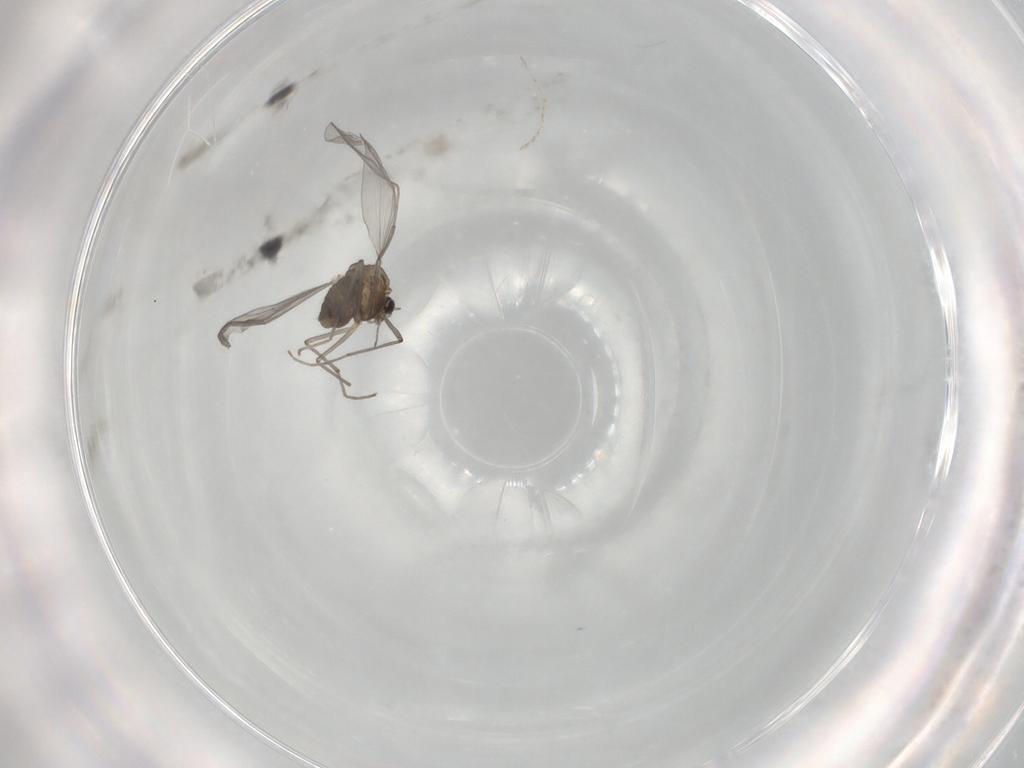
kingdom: Animalia
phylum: Arthropoda
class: Insecta
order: Diptera
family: Chironomidae
